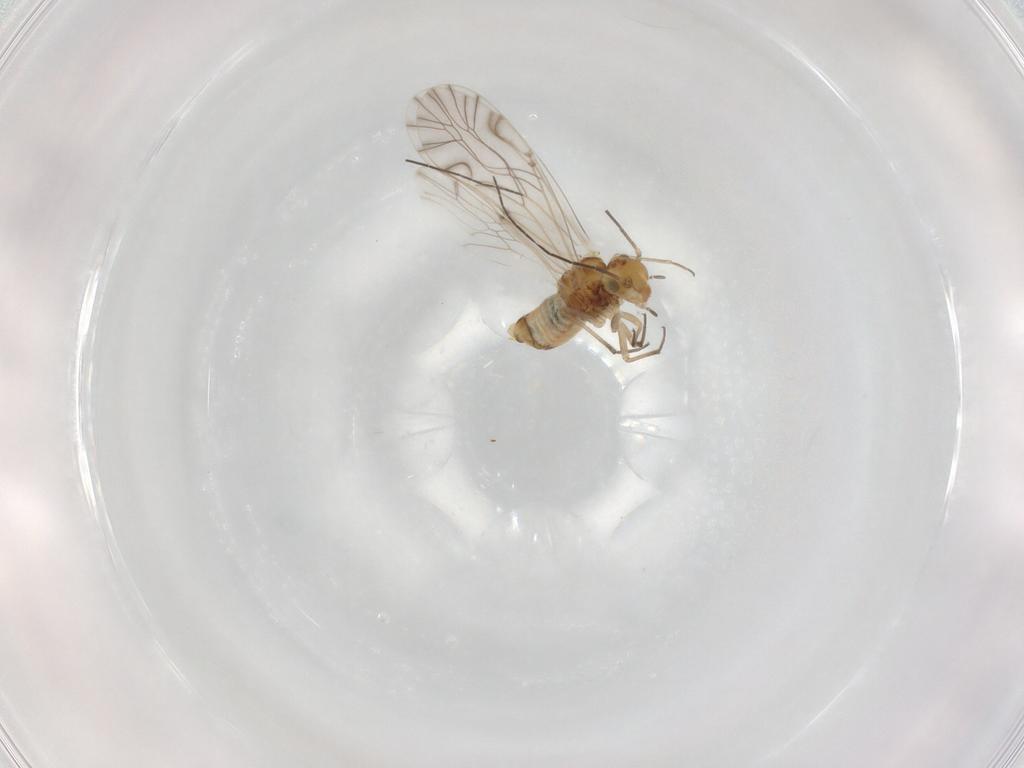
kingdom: Animalia
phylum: Arthropoda
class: Insecta
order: Psocodea
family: Lachesillidae
